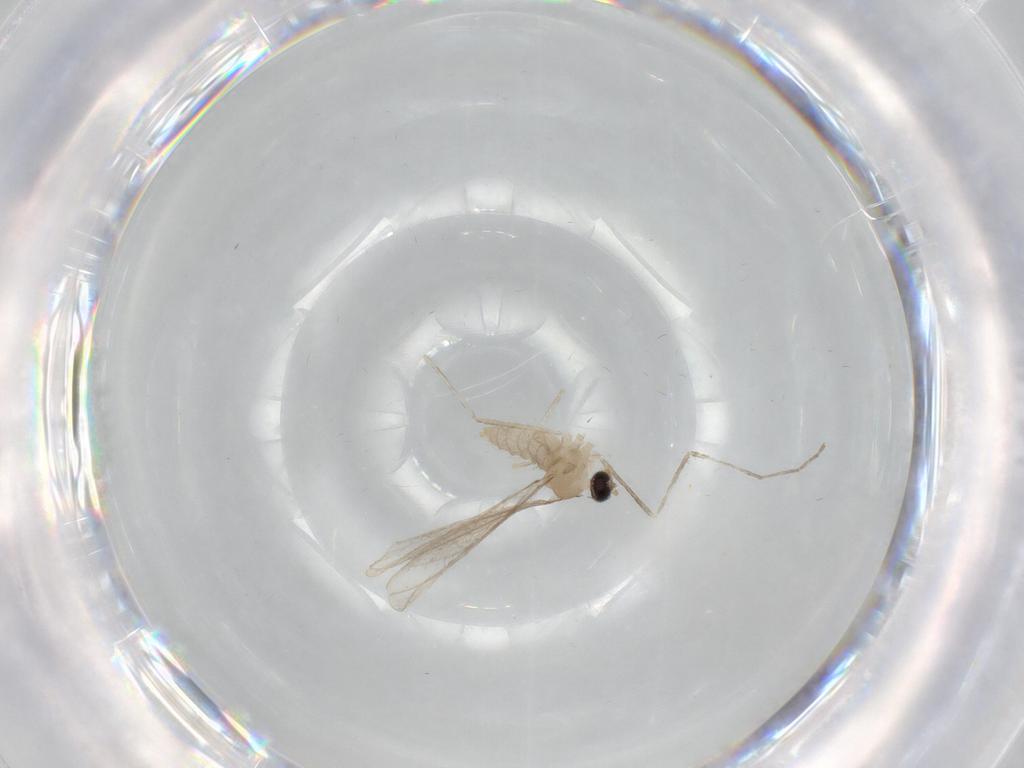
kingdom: Animalia
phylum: Arthropoda
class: Insecta
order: Diptera
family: Cecidomyiidae
